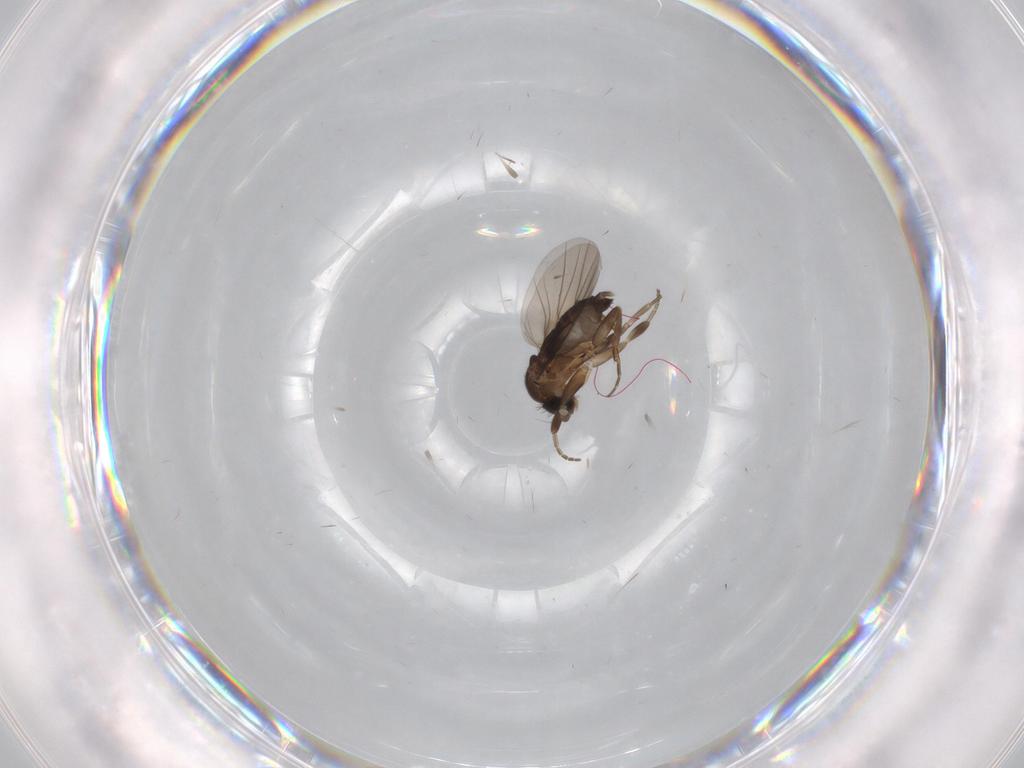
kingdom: Animalia
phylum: Arthropoda
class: Insecta
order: Diptera
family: Phoridae
